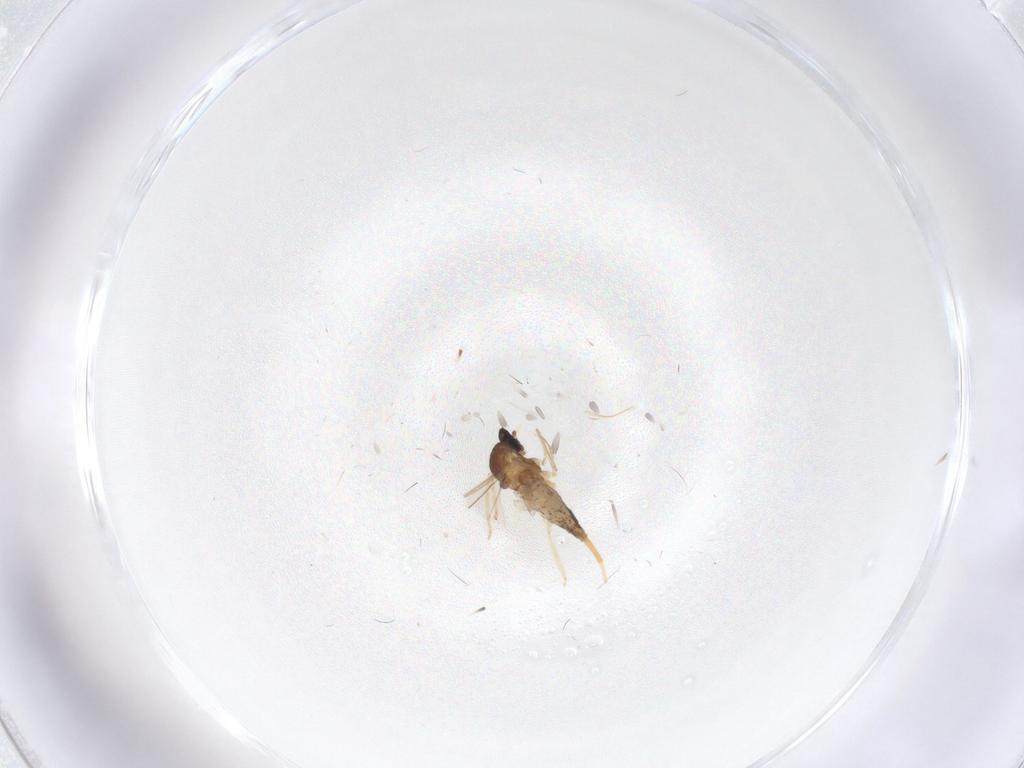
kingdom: Animalia
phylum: Arthropoda
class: Insecta
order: Diptera
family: Cecidomyiidae
